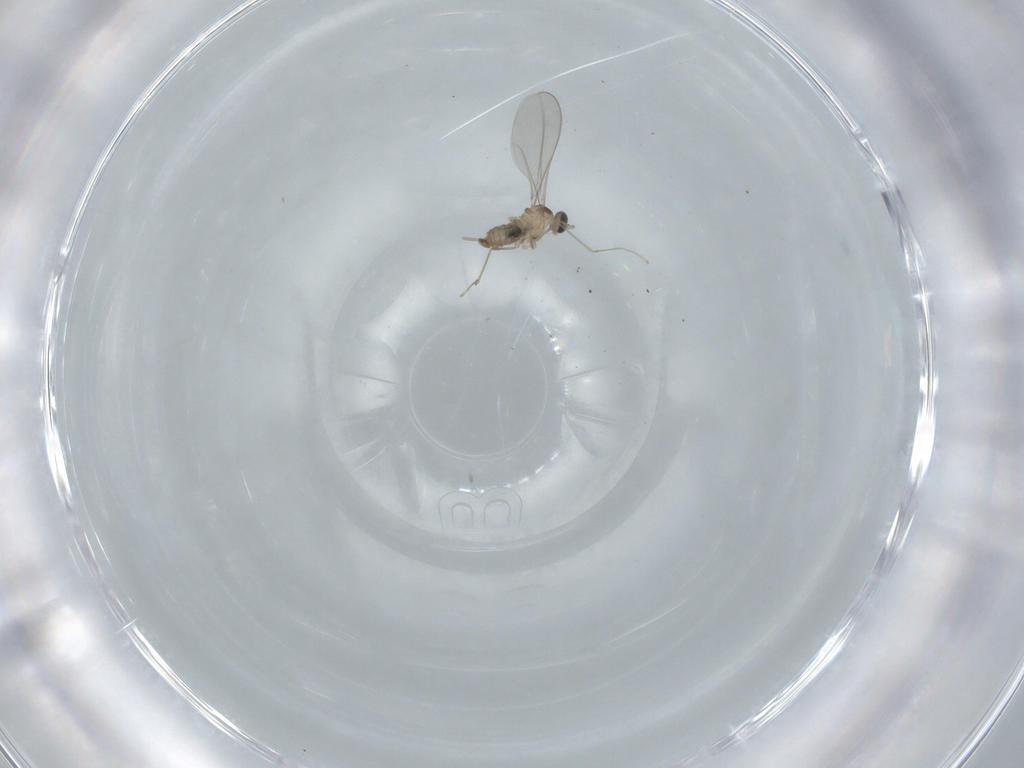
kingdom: Animalia
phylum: Arthropoda
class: Insecta
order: Diptera
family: Cecidomyiidae
